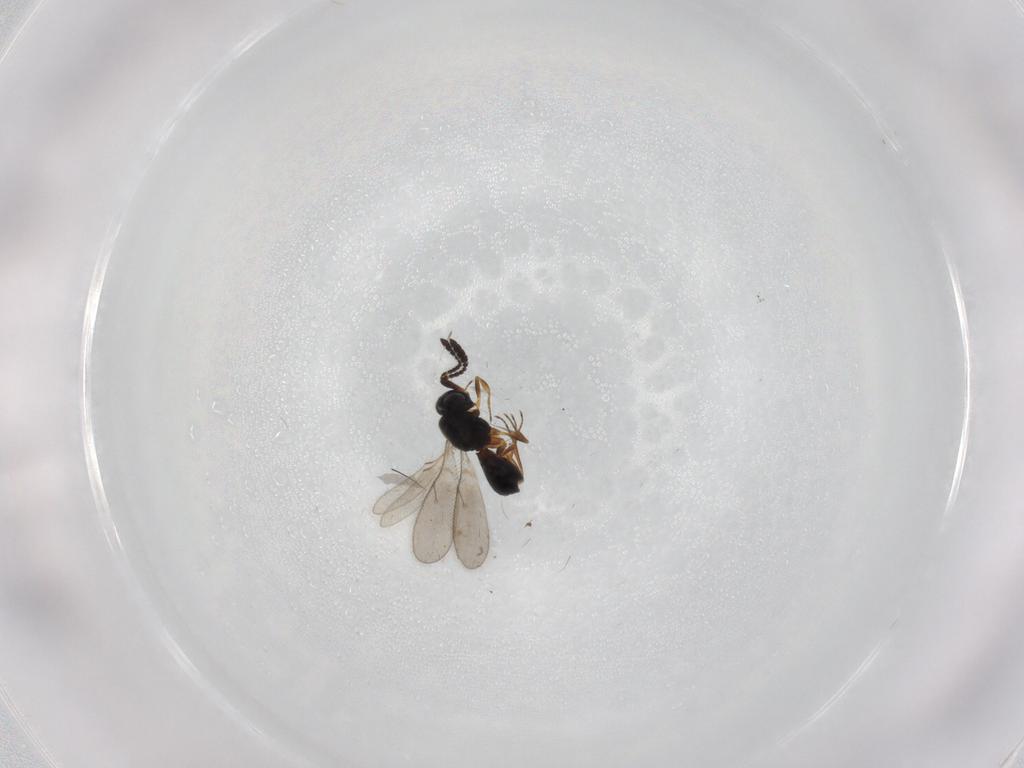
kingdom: Animalia
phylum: Arthropoda
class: Insecta
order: Hymenoptera
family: Scelionidae
